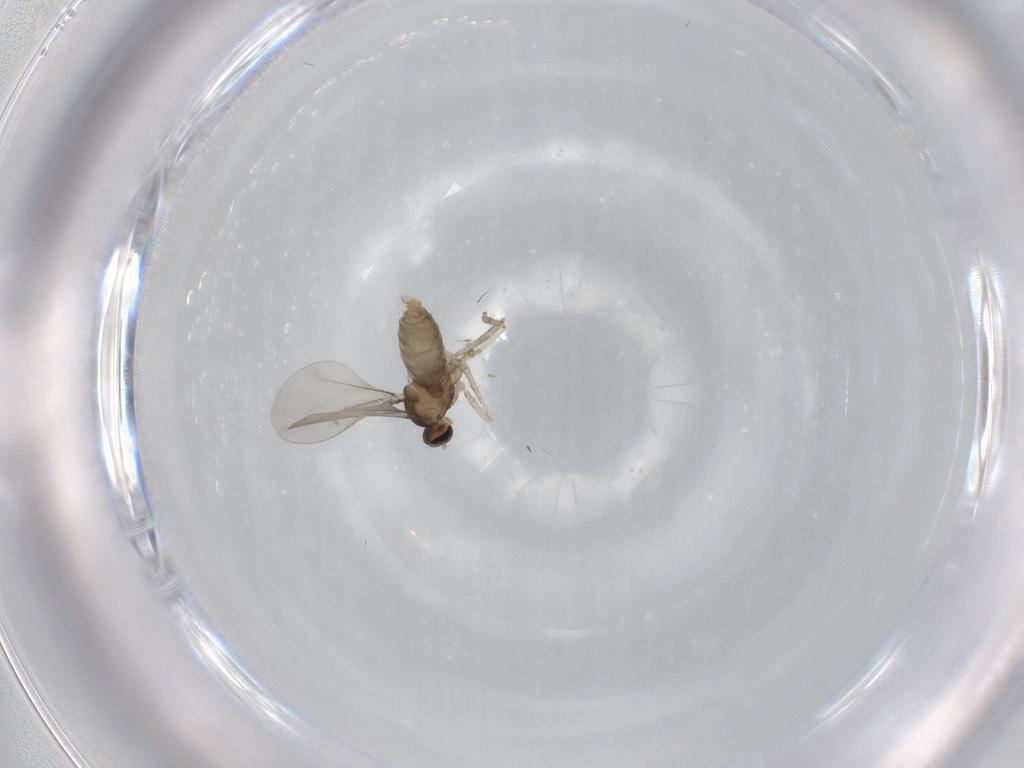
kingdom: Animalia
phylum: Arthropoda
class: Insecta
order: Diptera
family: Cecidomyiidae
